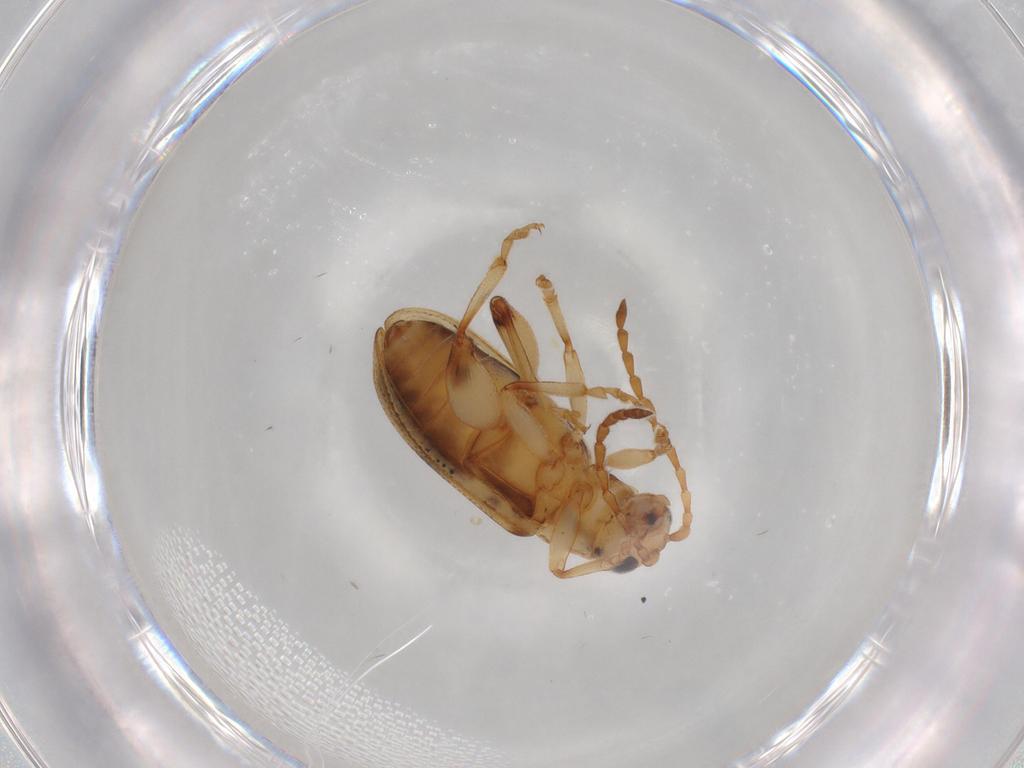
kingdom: Animalia
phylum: Arthropoda
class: Insecta
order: Coleoptera
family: Chrysomelidae
